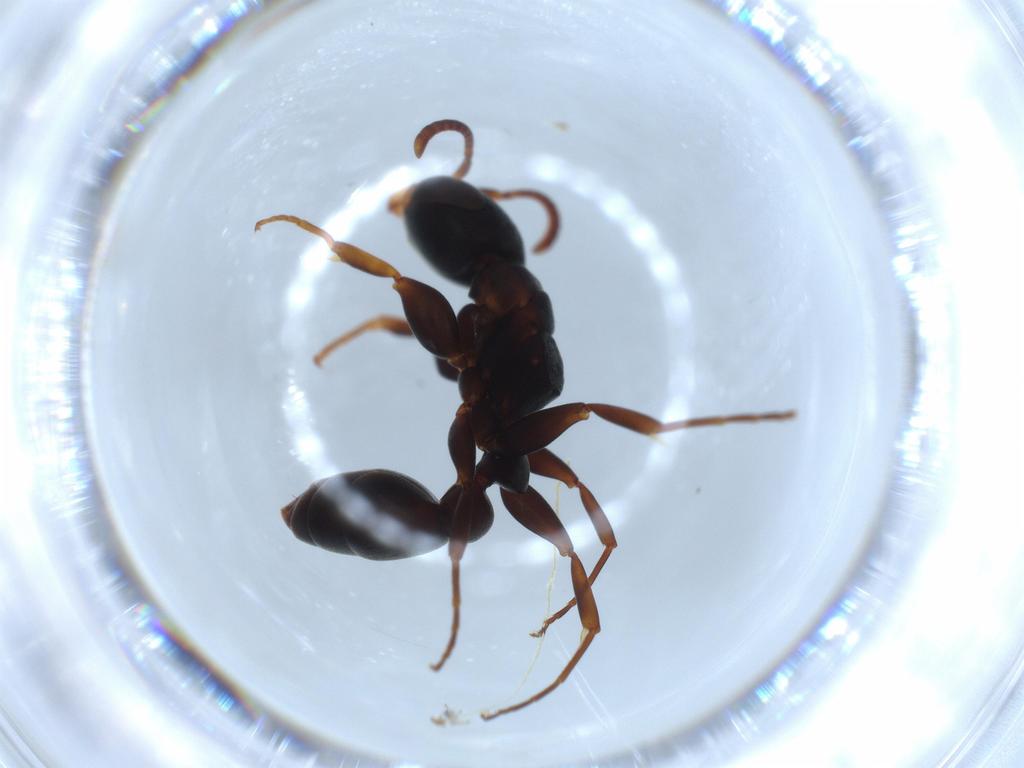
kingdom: Animalia
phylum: Arthropoda
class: Insecta
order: Hymenoptera
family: Formicidae
